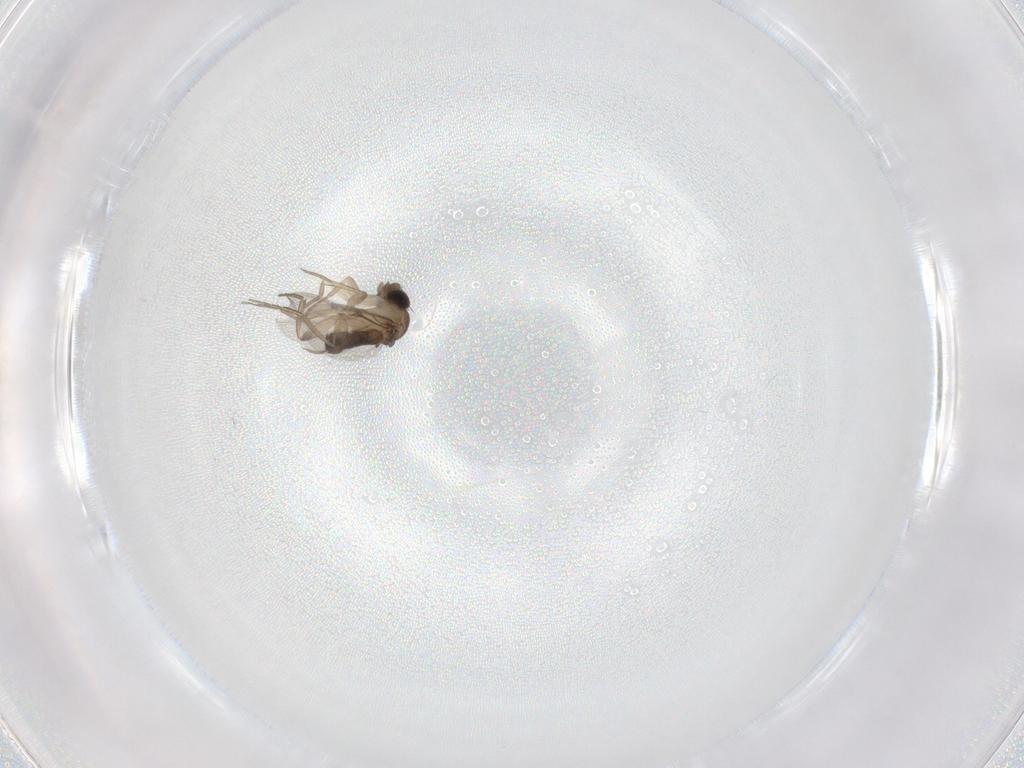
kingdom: Animalia
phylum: Arthropoda
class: Insecta
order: Diptera
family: Phoridae
